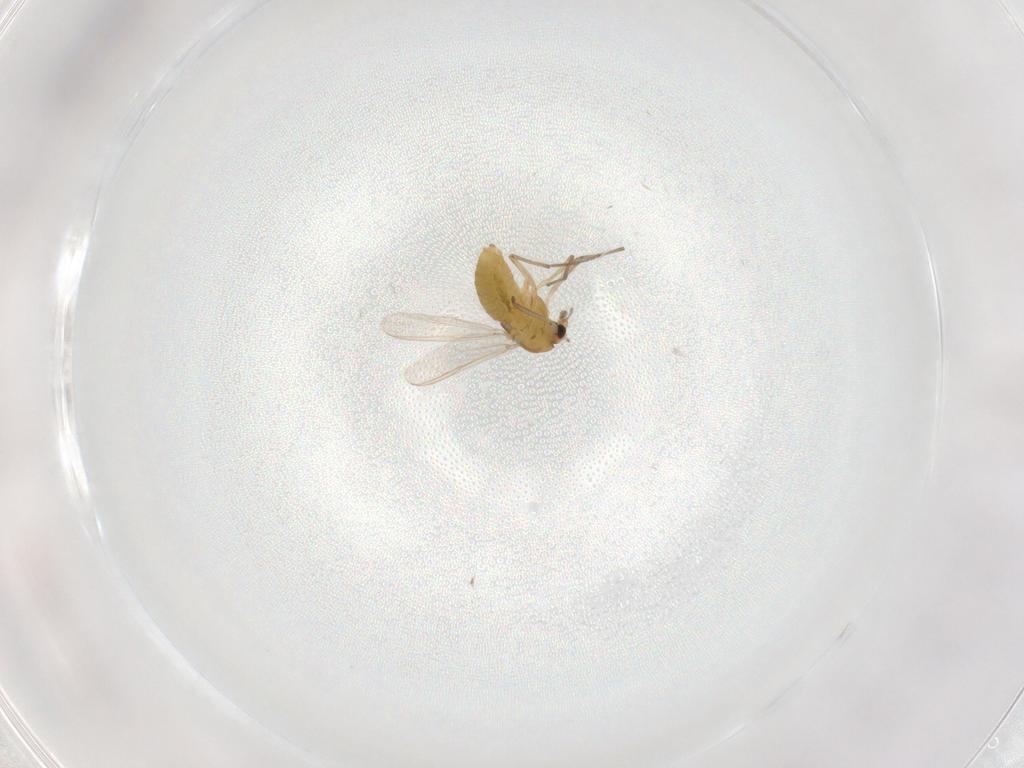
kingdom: Animalia
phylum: Arthropoda
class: Insecta
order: Diptera
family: Chironomidae
